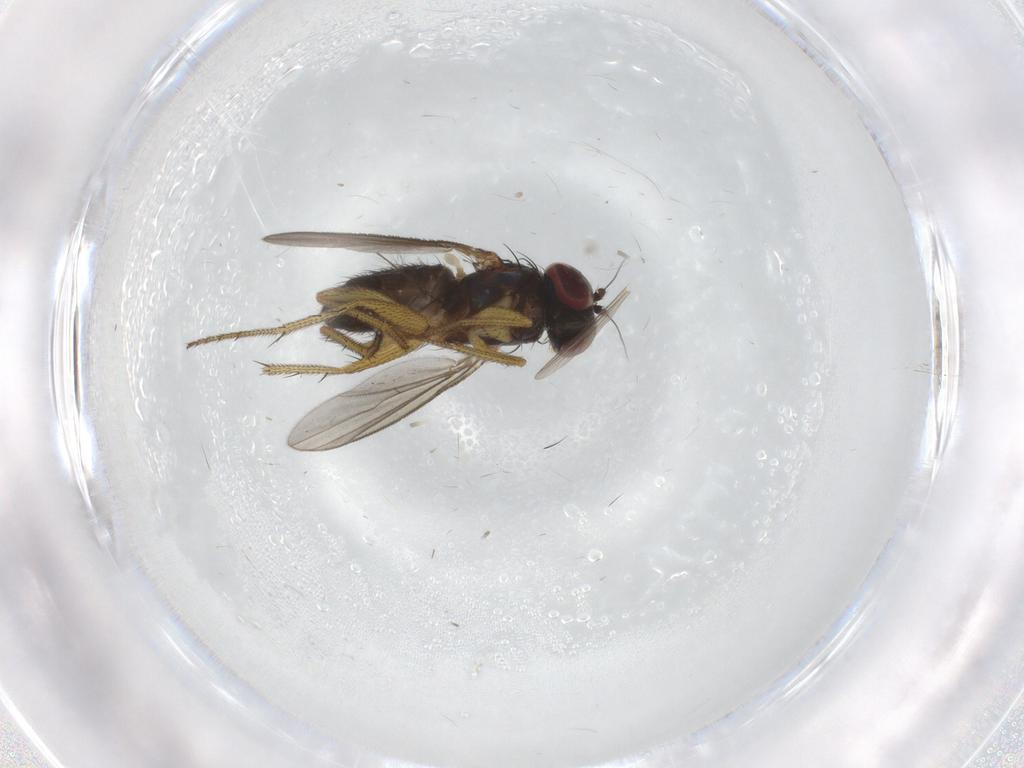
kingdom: Animalia
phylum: Arthropoda
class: Insecta
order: Diptera
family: Dolichopodidae
